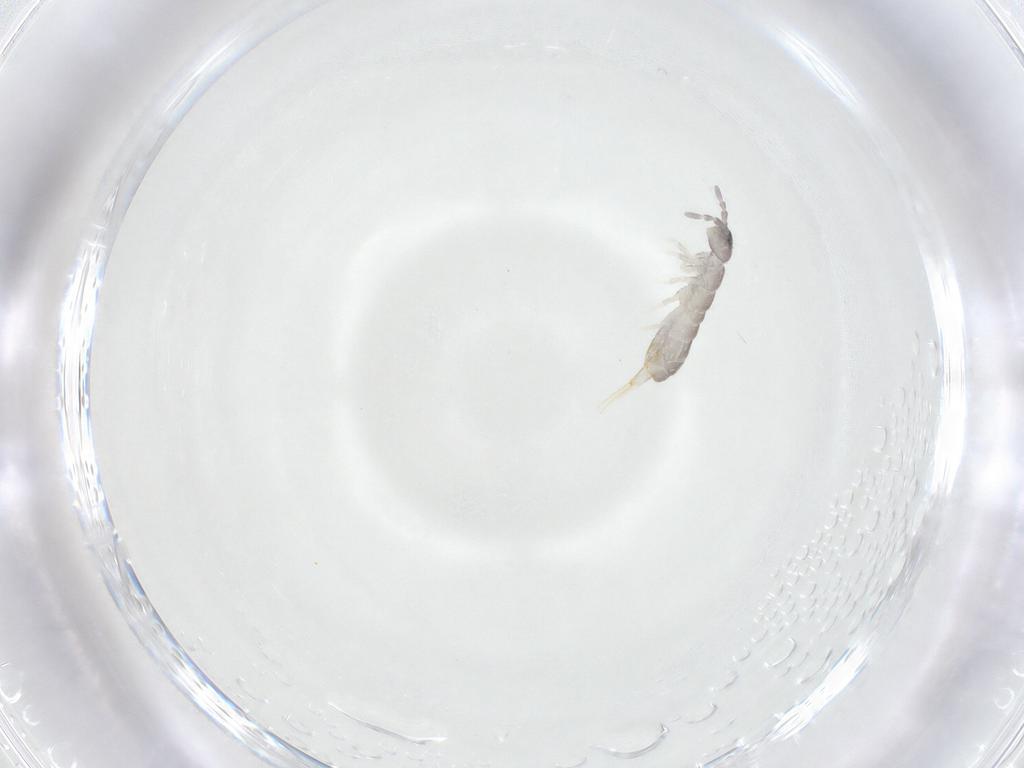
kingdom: Animalia
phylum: Arthropoda
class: Collembola
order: Entomobryomorpha
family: Isotomidae
